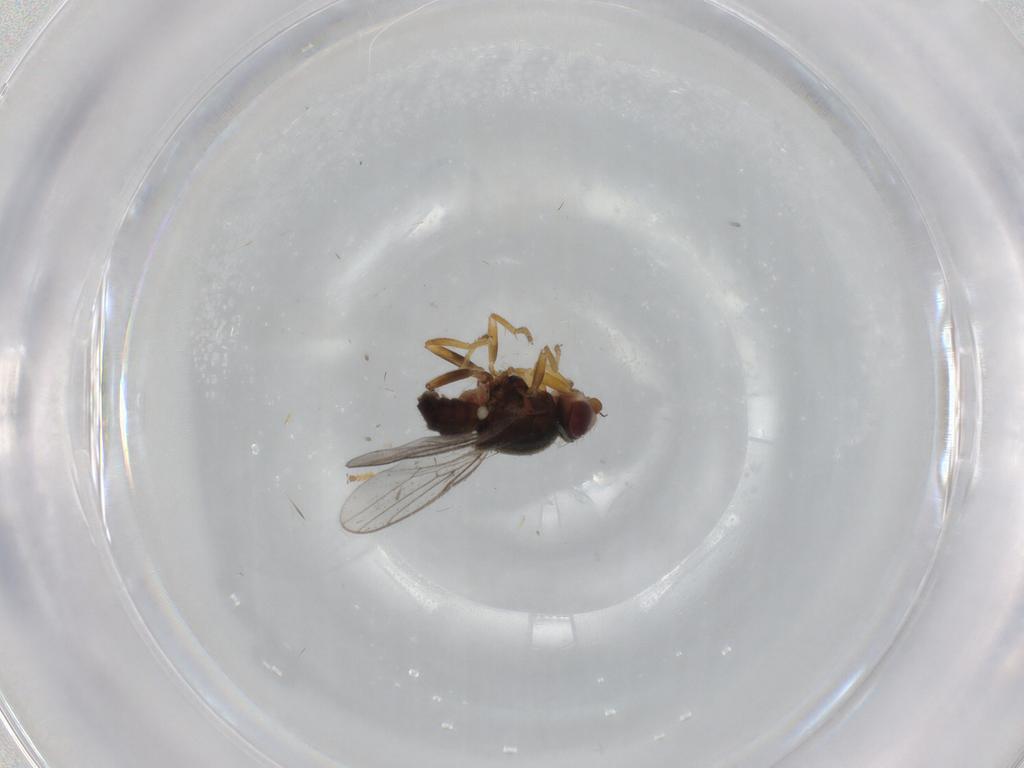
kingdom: Animalia
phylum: Arthropoda
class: Insecta
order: Diptera
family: Chloropidae
